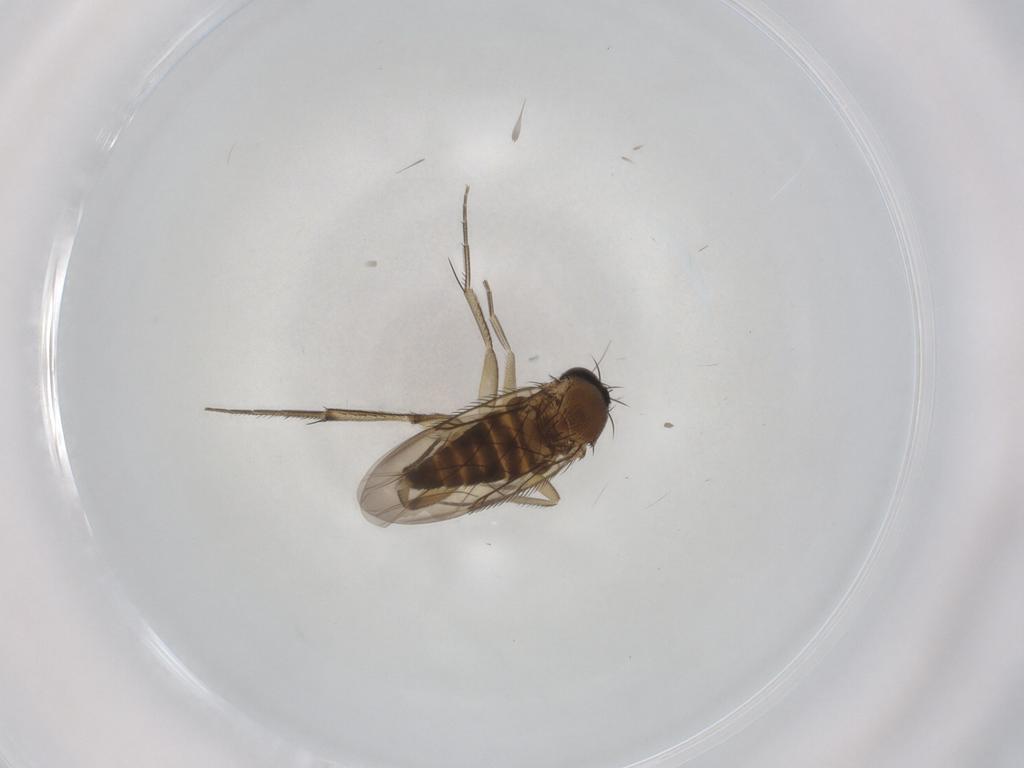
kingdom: Animalia
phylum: Arthropoda
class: Insecta
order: Diptera
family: Phoridae
